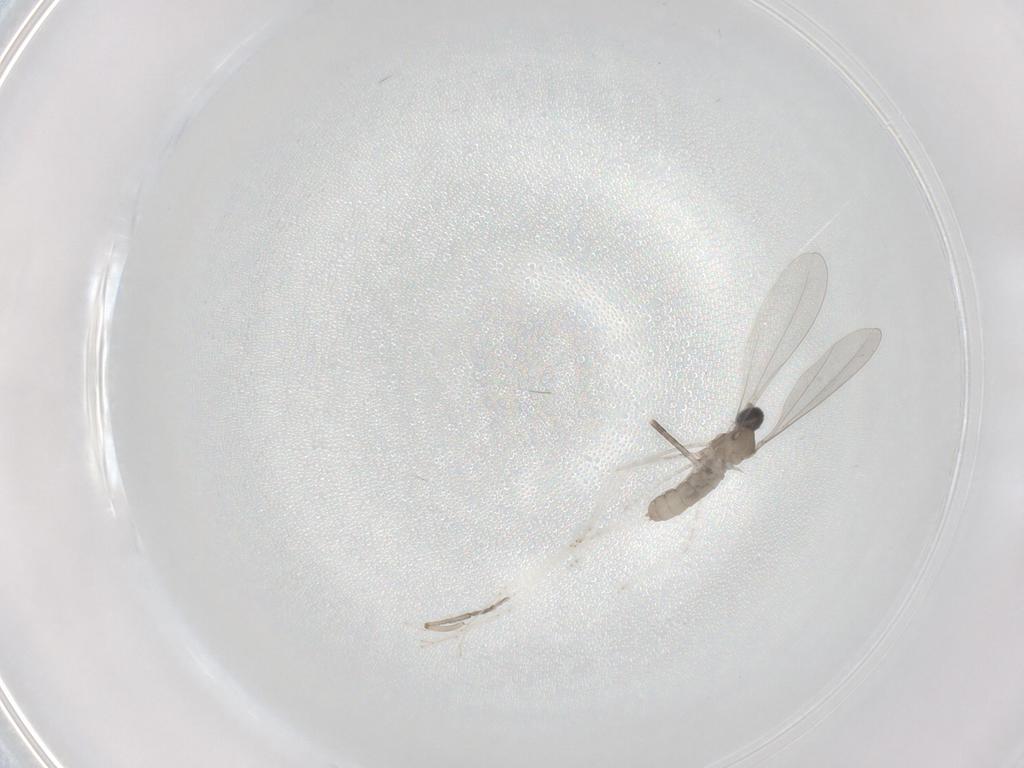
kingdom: Animalia
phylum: Arthropoda
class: Insecta
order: Diptera
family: Cecidomyiidae
